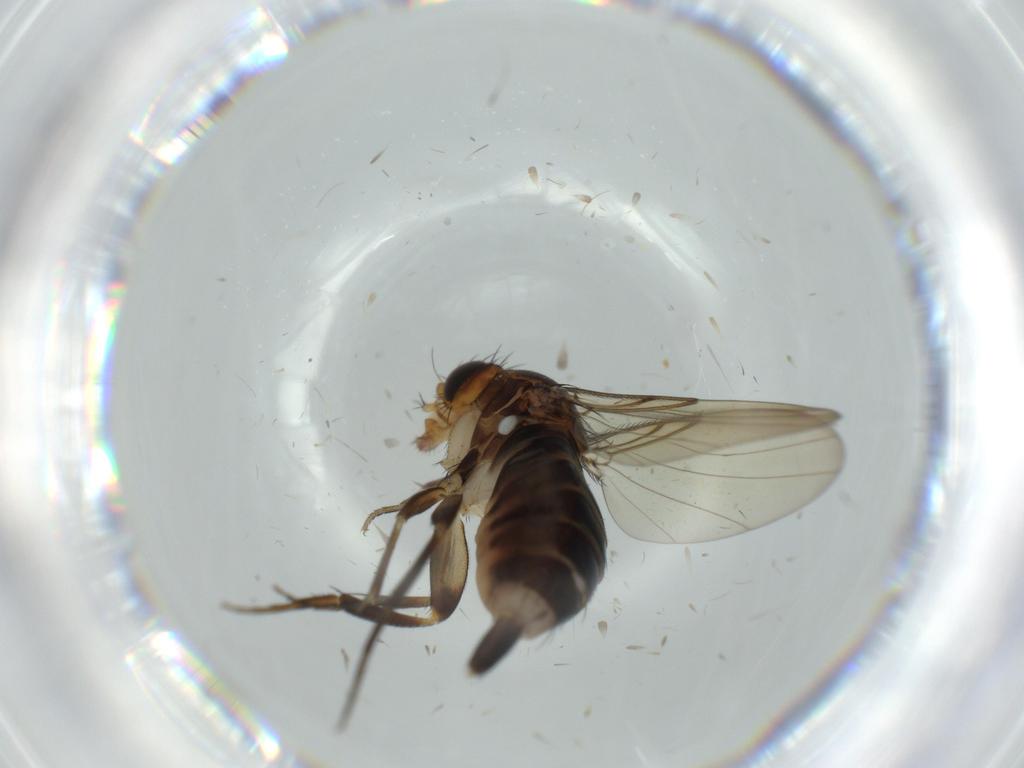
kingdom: Animalia
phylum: Arthropoda
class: Insecta
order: Diptera
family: Phoridae
